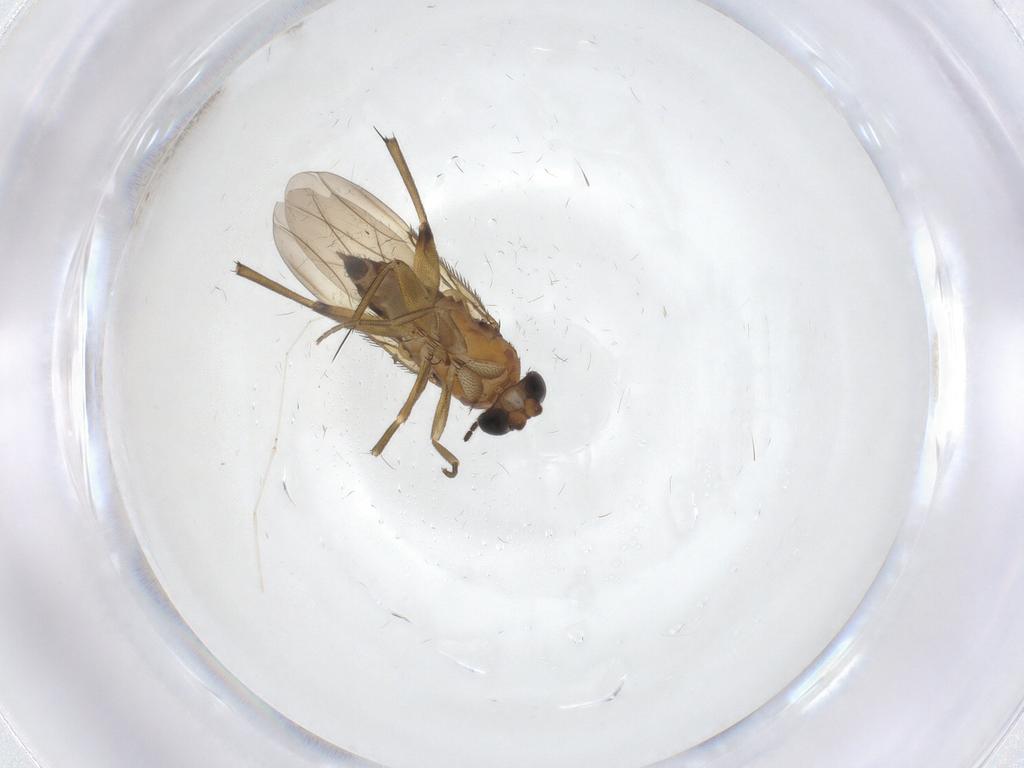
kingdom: Animalia
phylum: Arthropoda
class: Insecta
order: Diptera
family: Phoridae
